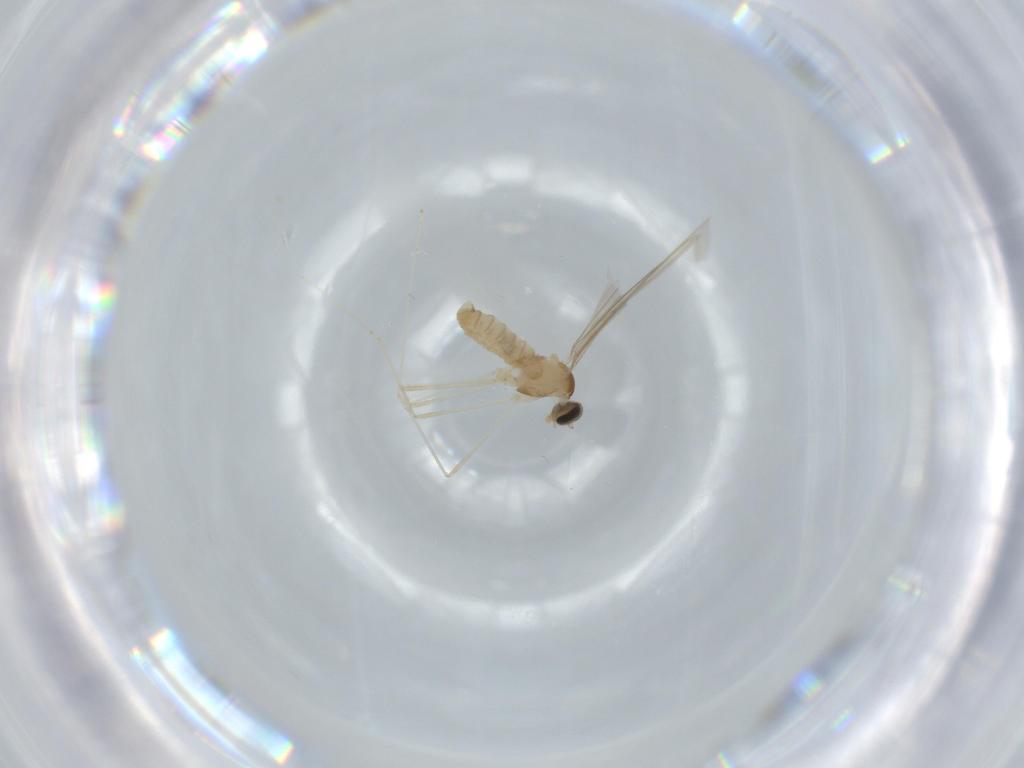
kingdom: Animalia
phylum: Arthropoda
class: Insecta
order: Diptera
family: Cecidomyiidae
